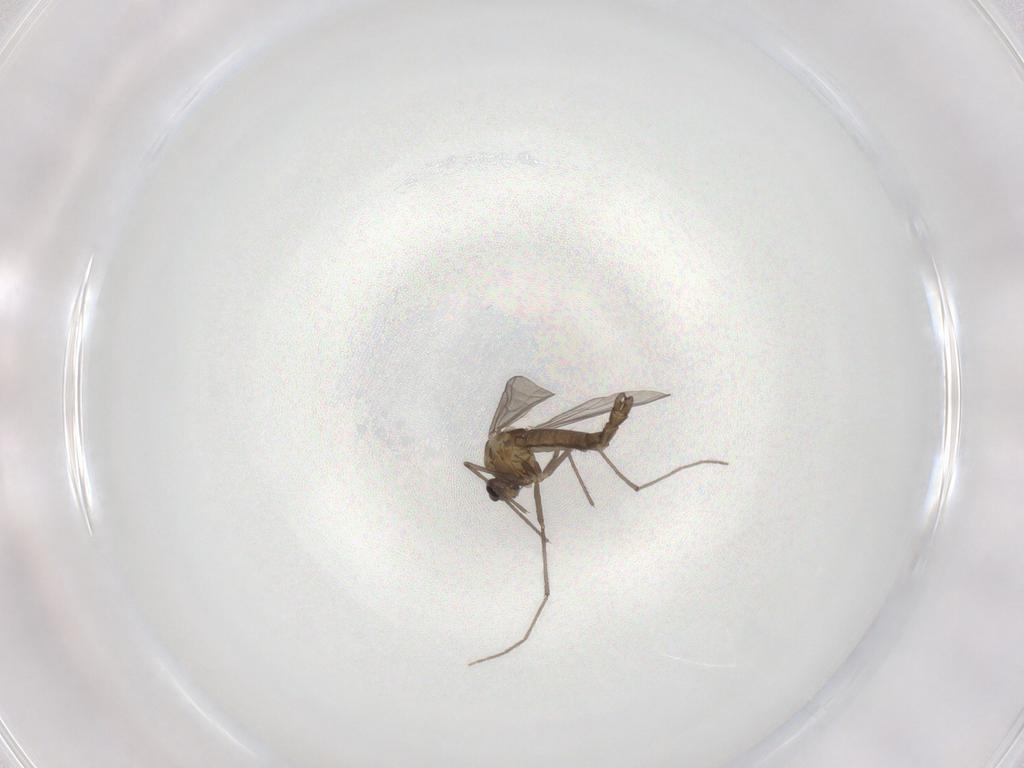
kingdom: Animalia
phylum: Arthropoda
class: Insecta
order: Diptera
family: Chironomidae
